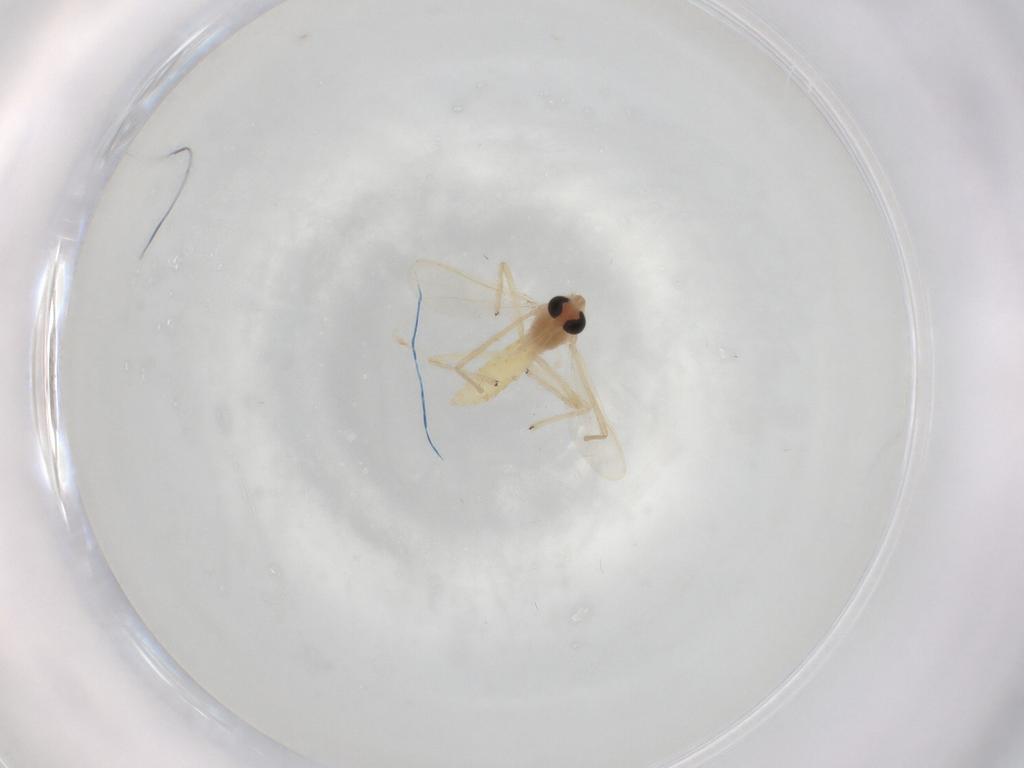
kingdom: Animalia
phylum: Arthropoda
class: Insecta
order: Diptera
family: Chironomidae
